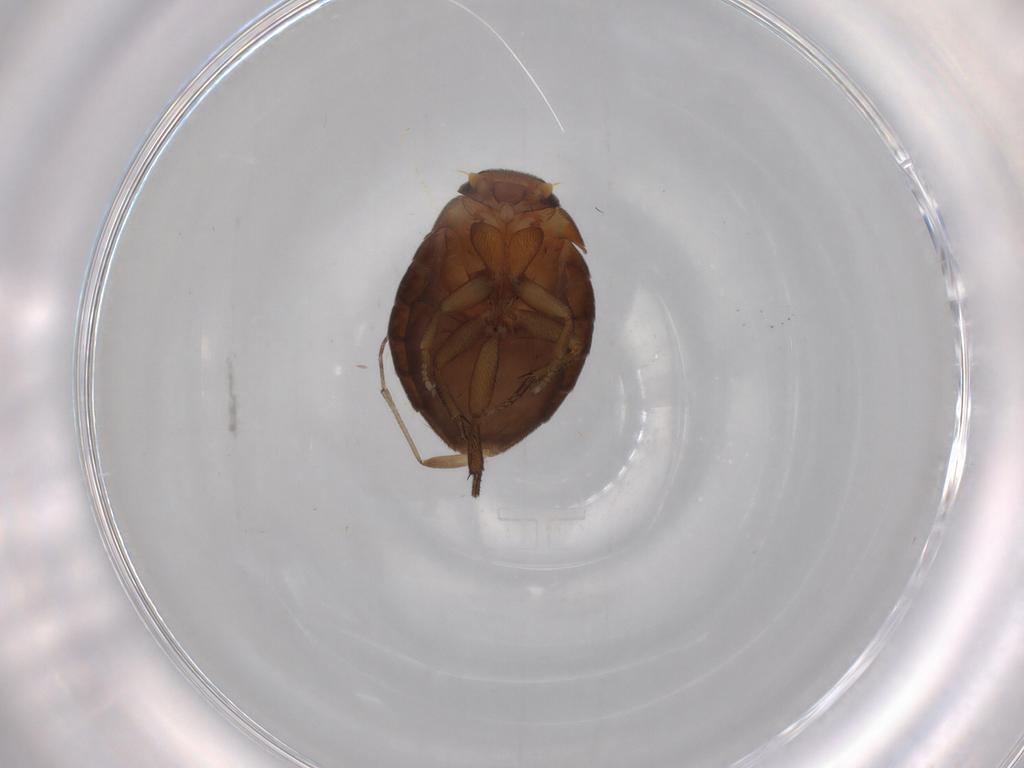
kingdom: Animalia
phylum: Arthropoda
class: Insecta
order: Diptera
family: Phoridae
